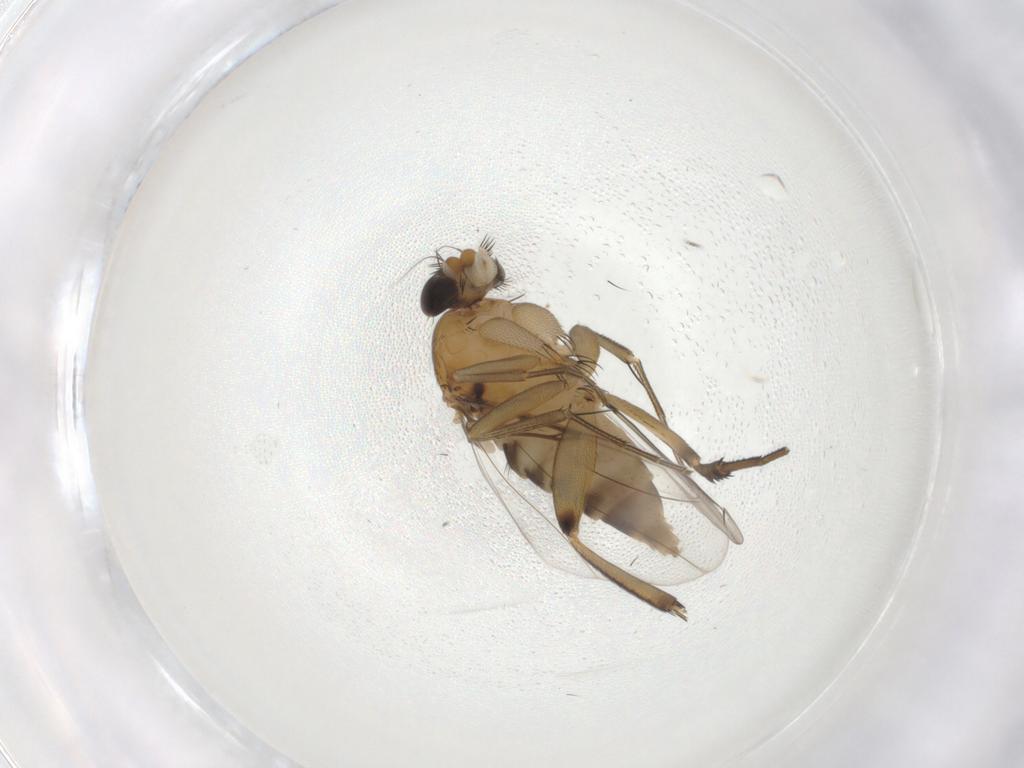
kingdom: Animalia
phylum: Arthropoda
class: Insecta
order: Diptera
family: Phoridae
